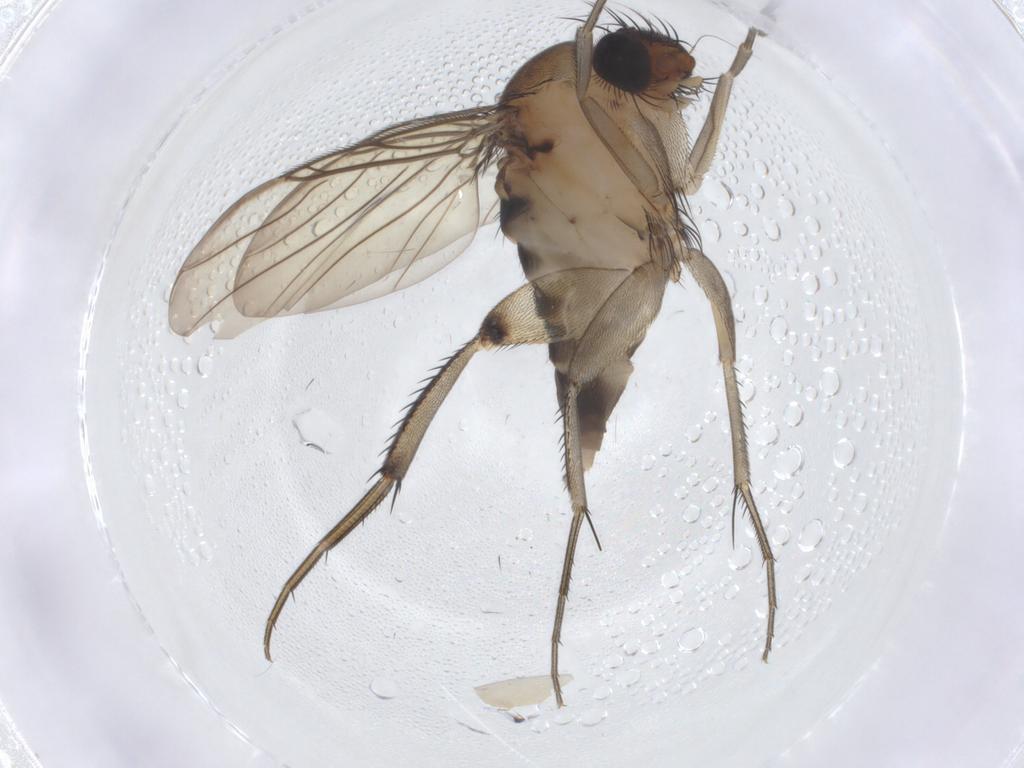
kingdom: Animalia
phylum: Arthropoda
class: Insecta
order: Diptera
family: Phoridae
